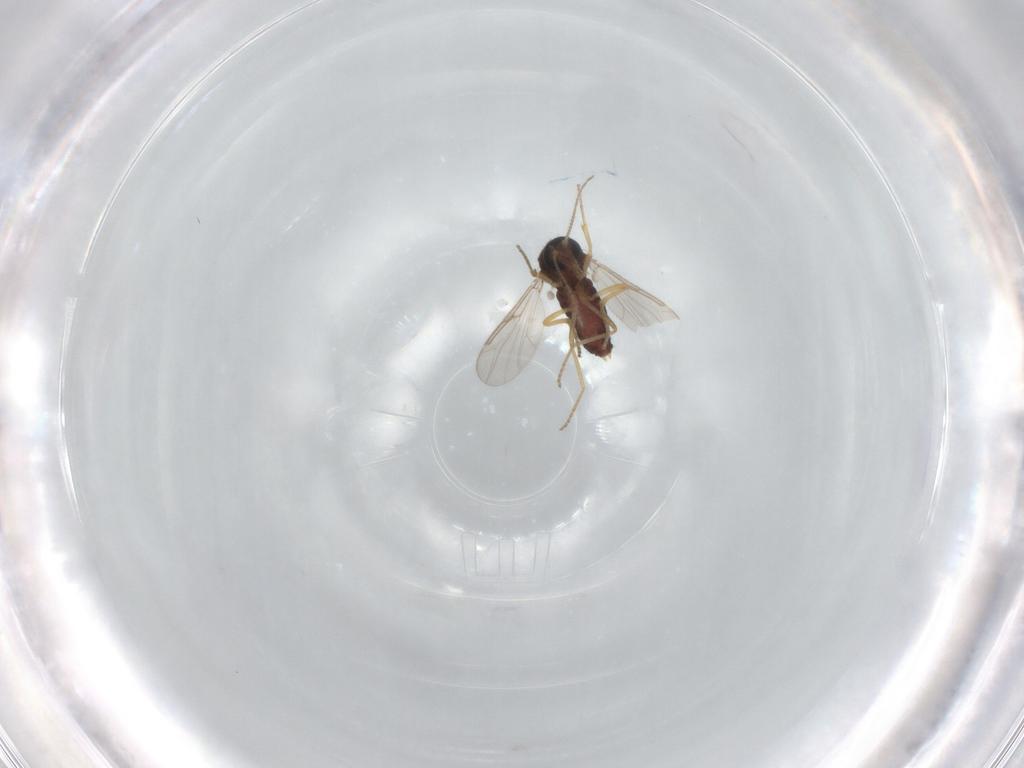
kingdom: Animalia
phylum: Arthropoda
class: Insecta
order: Diptera
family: Ceratopogonidae
